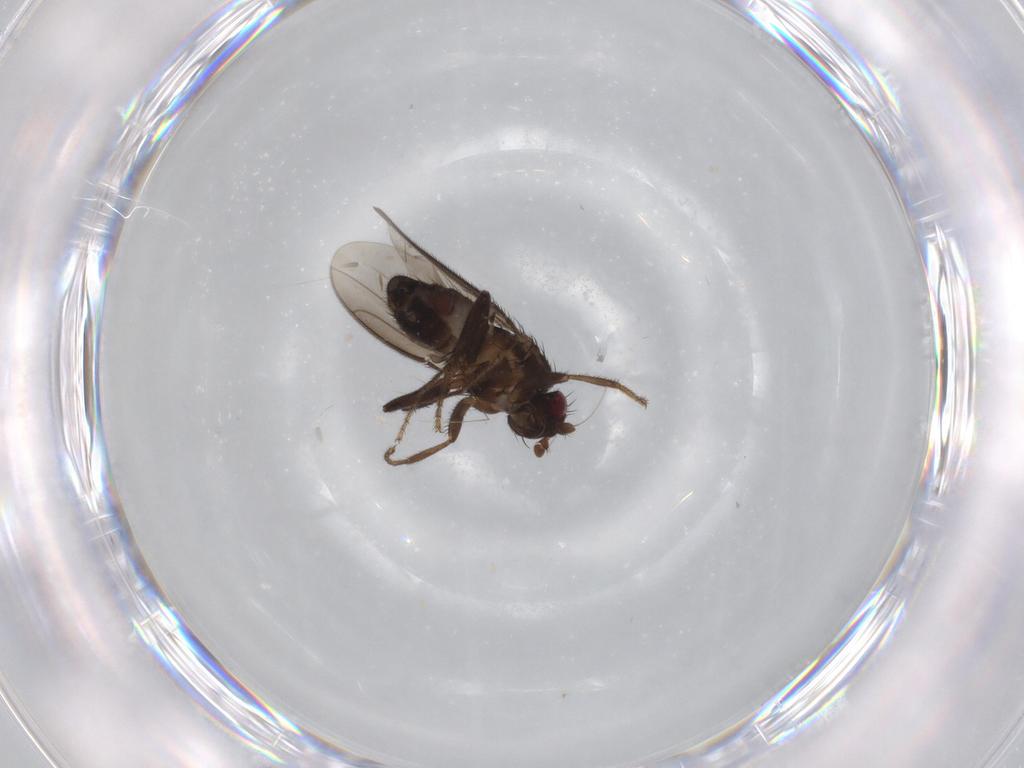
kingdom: Animalia
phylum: Arthropoda
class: Insecta
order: Diptera
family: Sphaeroceridae
